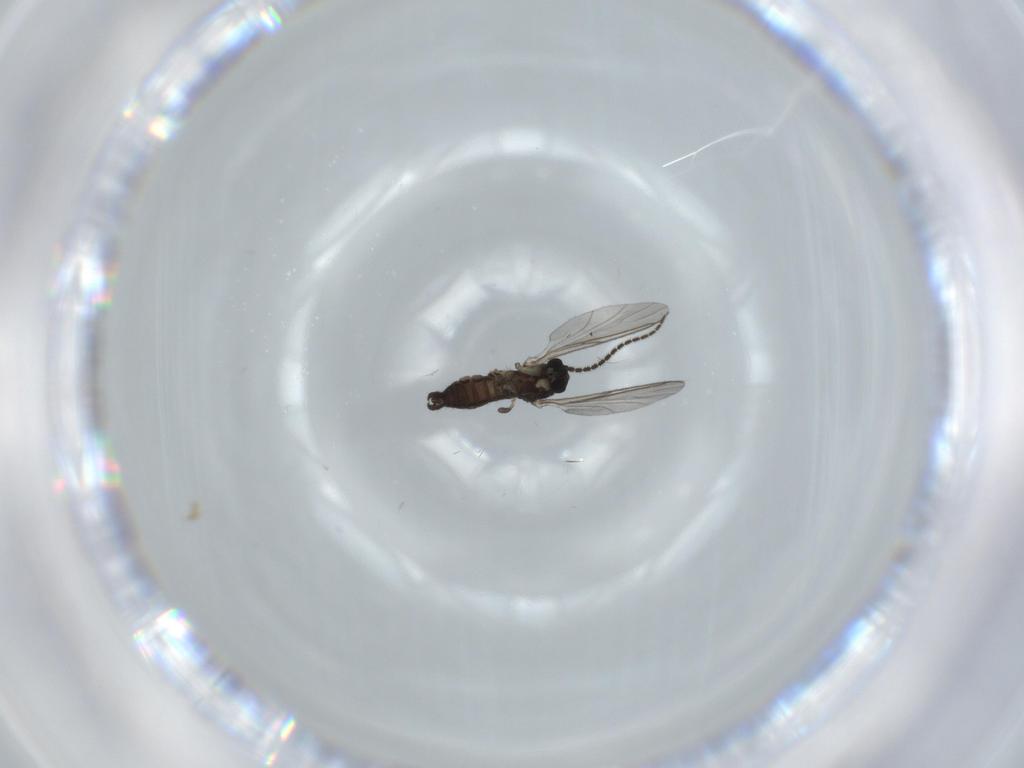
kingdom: Animalia
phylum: Arthropoda
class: Insecta
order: Diptera
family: Sciaridae
